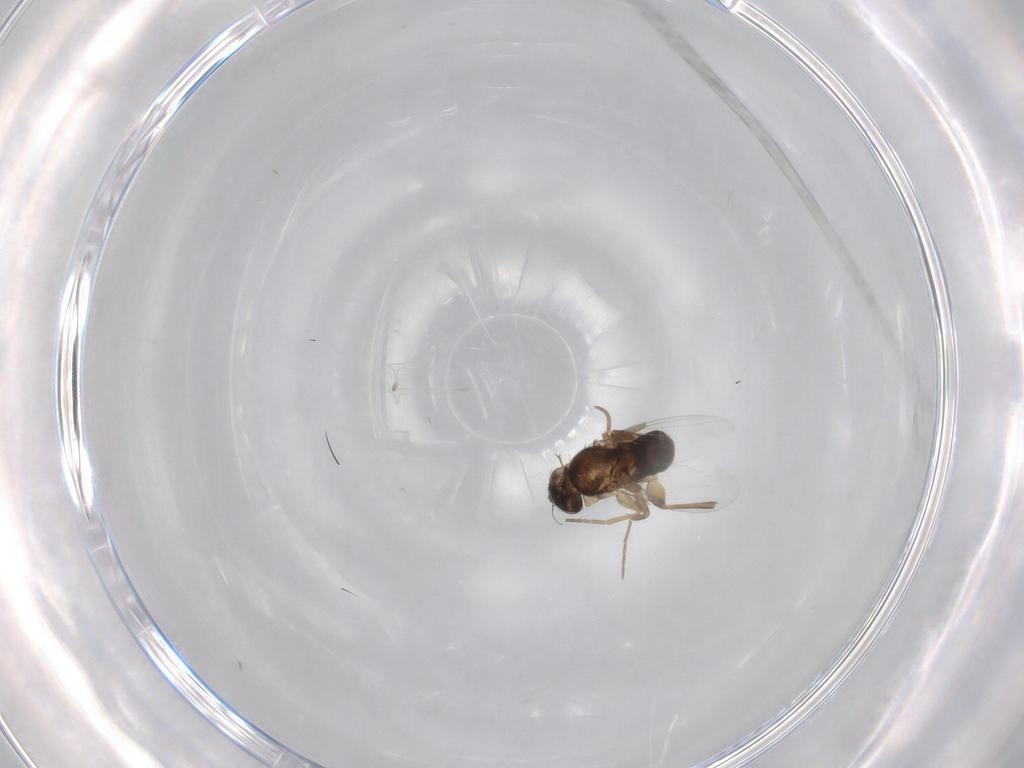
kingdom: Animalia
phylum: Arthropoda
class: Insecta
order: Diptera
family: Phoridae
